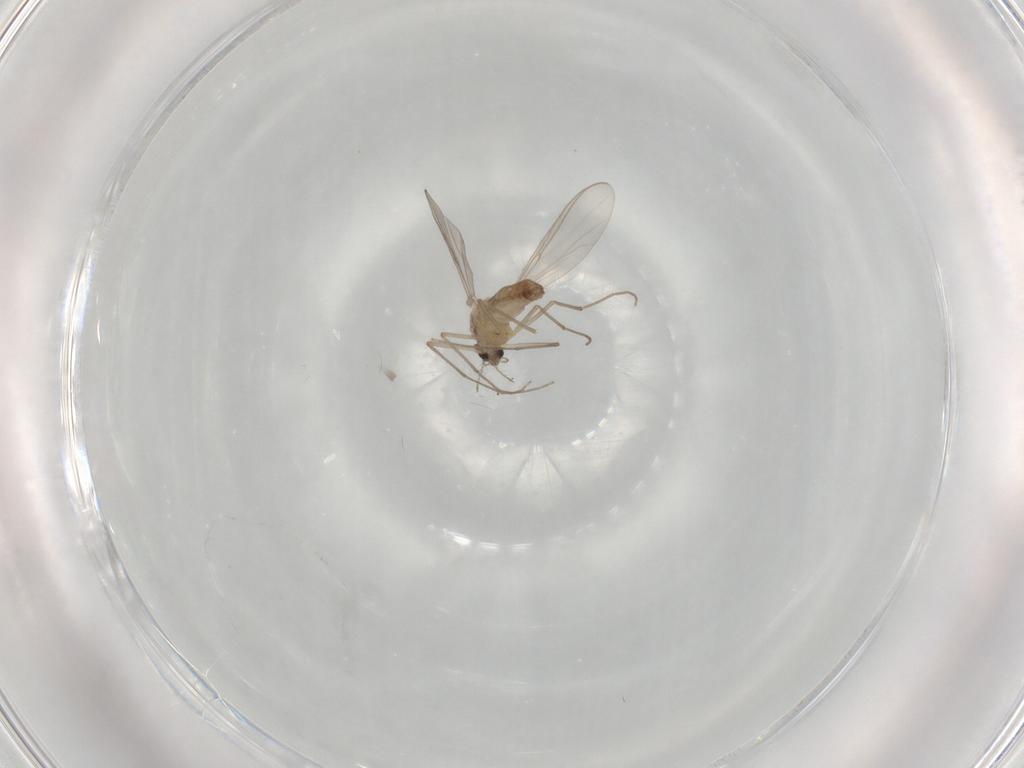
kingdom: Animalia
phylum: Arthropoda
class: Insecta
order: Diptera
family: Chironomidae
